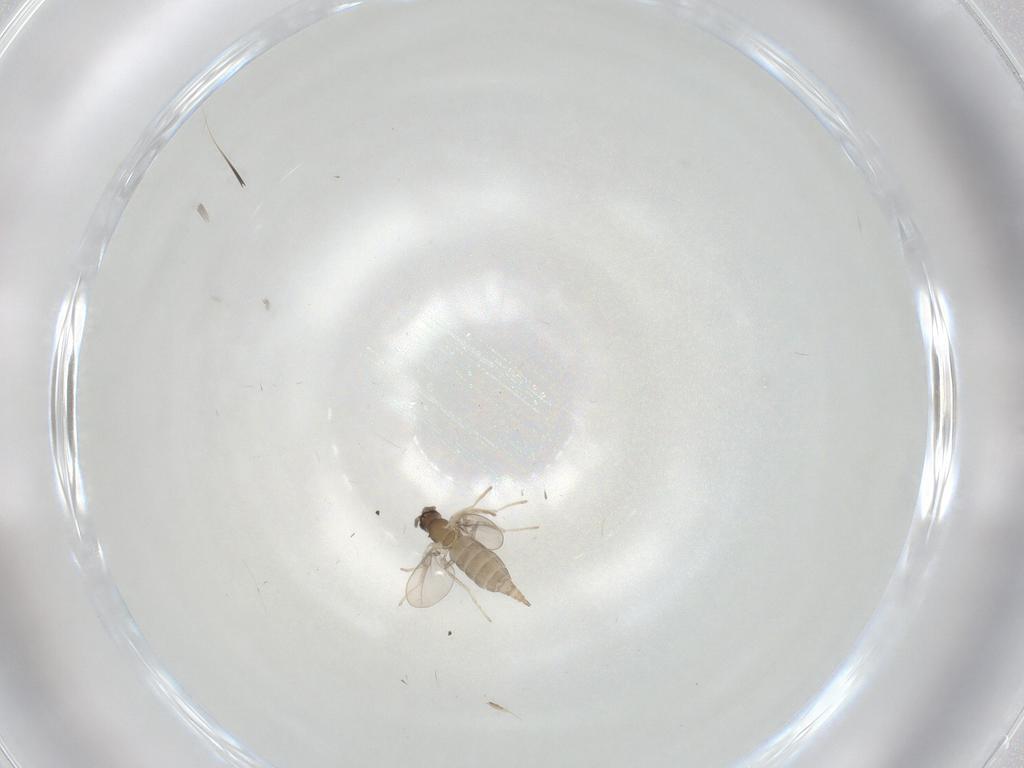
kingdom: Animalia
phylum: Arthropoda
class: Insecta
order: Diptera
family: Cecidomyiidae
